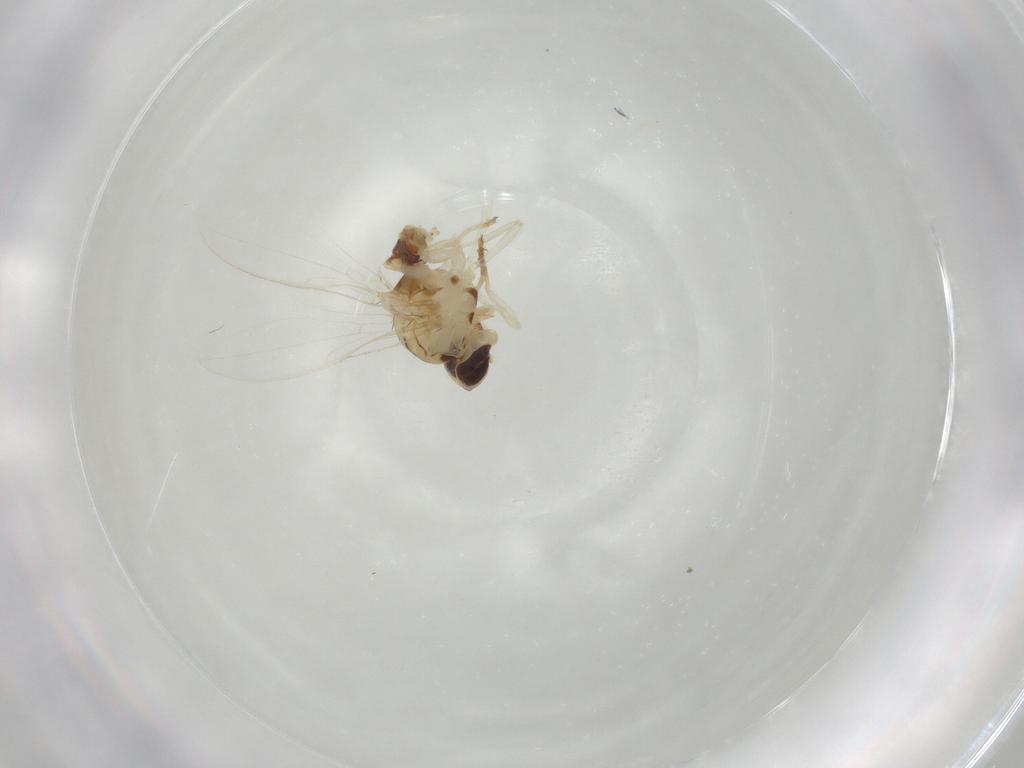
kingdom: Animalia
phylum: Arthropoda
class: Insecta
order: Diptera
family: Asteiidae
